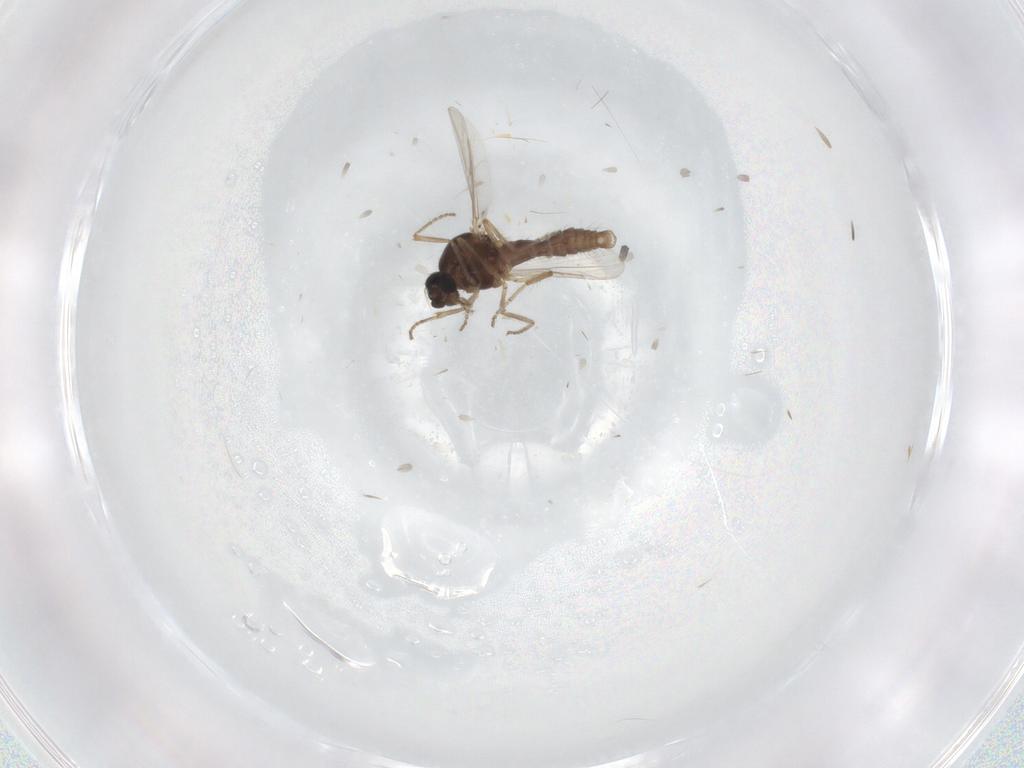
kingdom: Animalia
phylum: Arthropoda
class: Insecta
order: Diptera
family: Ceratopogonidae
